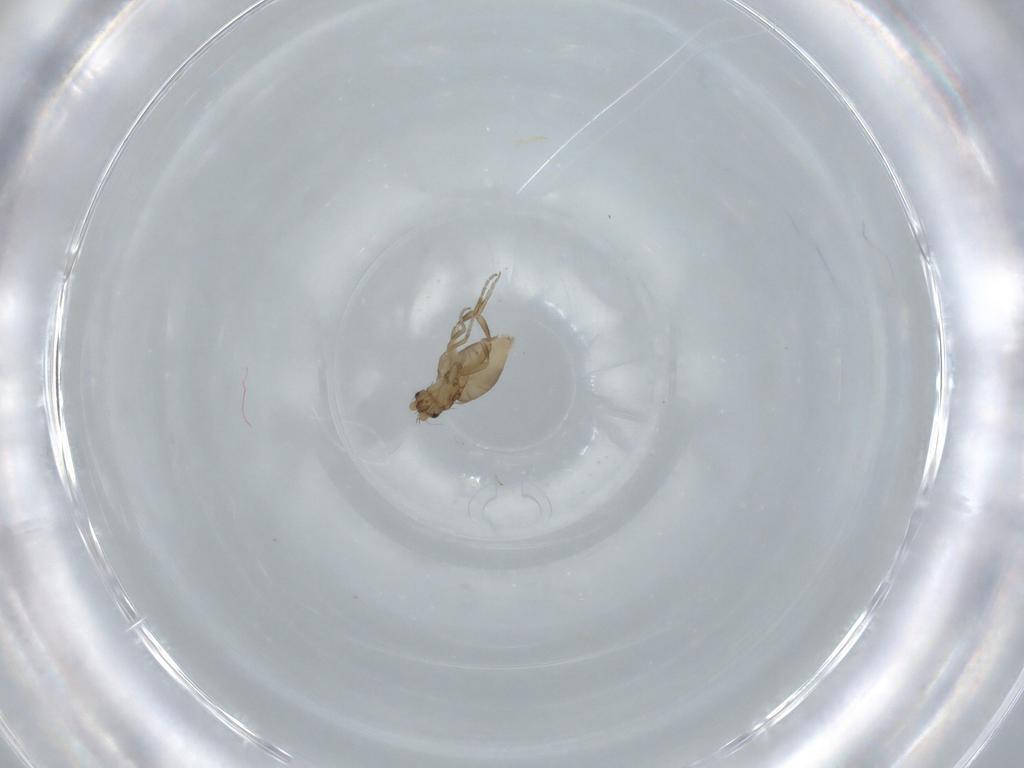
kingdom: Animalia
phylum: Arthropoda
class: Insecta
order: Diptera
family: Phoridae
